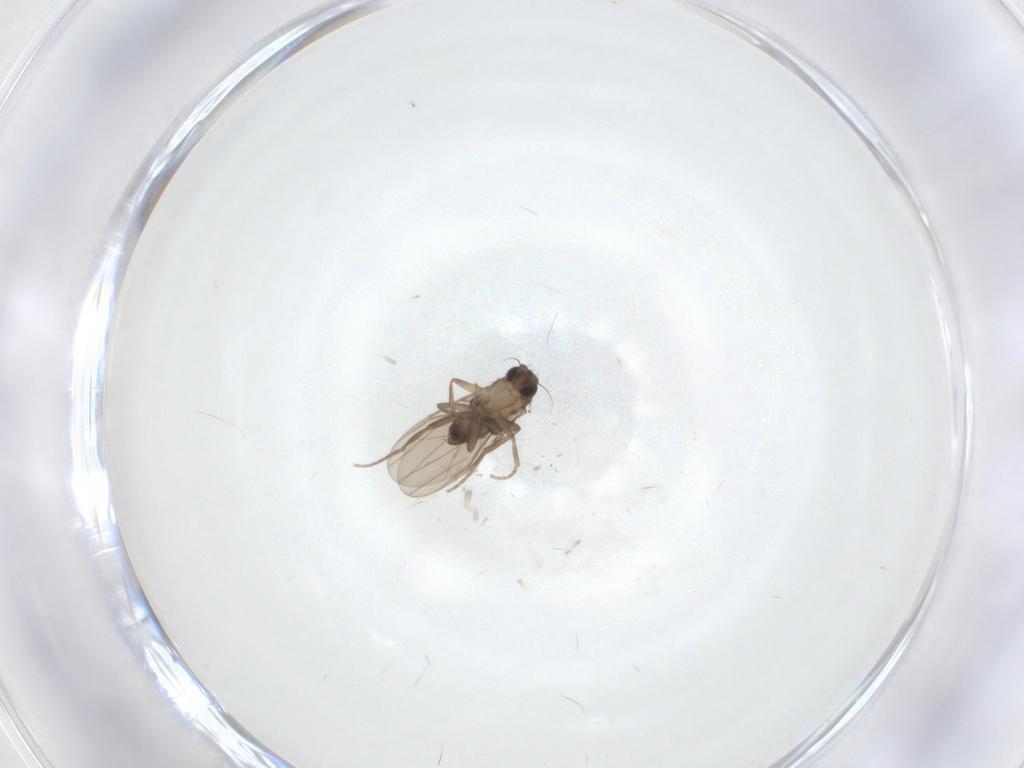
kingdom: Animalia
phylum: Arthropoda
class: Insecta
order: Diptera
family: Phoridae
